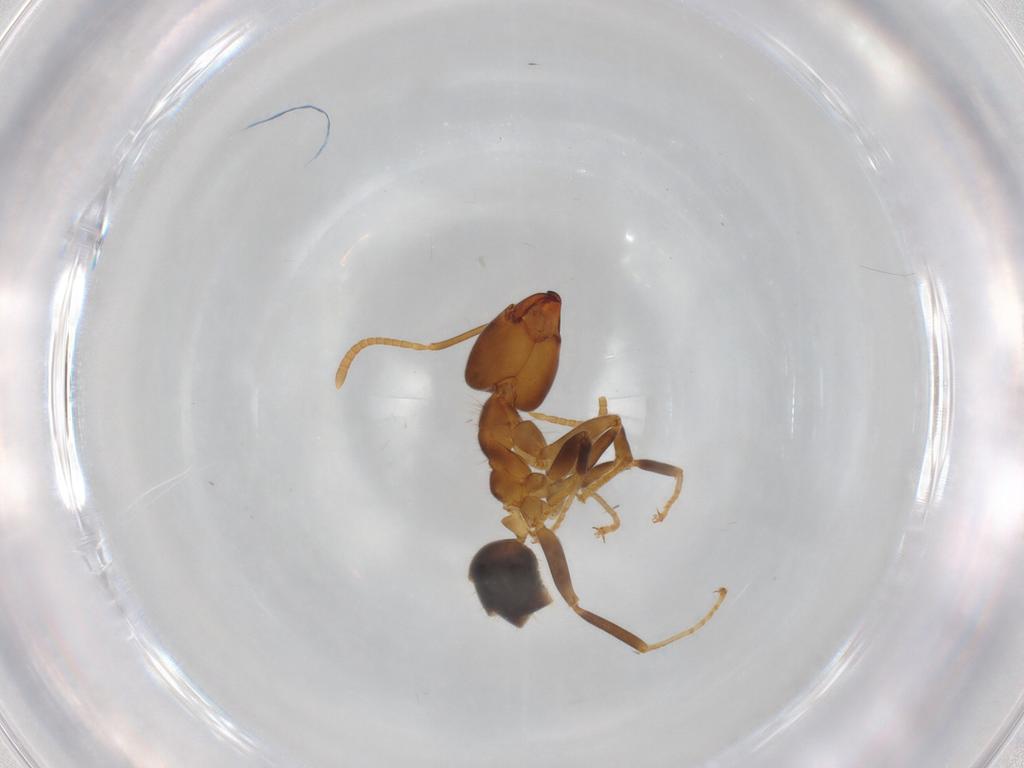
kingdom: Animalia
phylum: Arthropoda
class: Insecta
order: Hymenoptera
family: Formicidae
